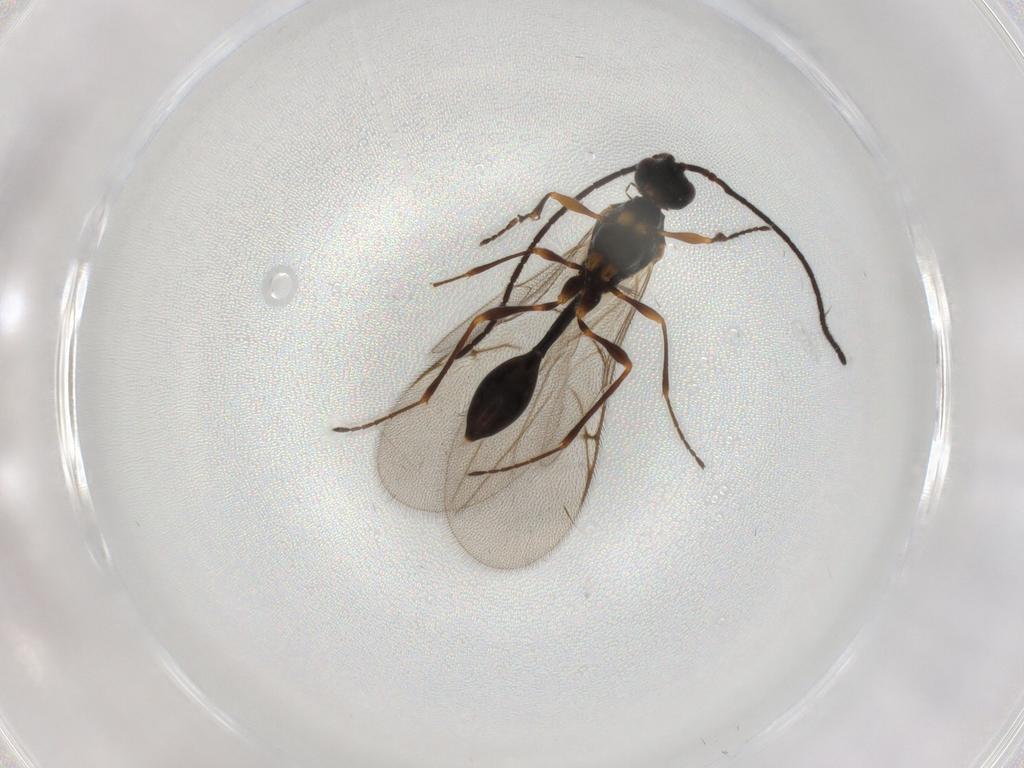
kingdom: Animalia
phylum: Arthropoda
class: Insecta
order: Hymenoptera
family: Diapriidae
